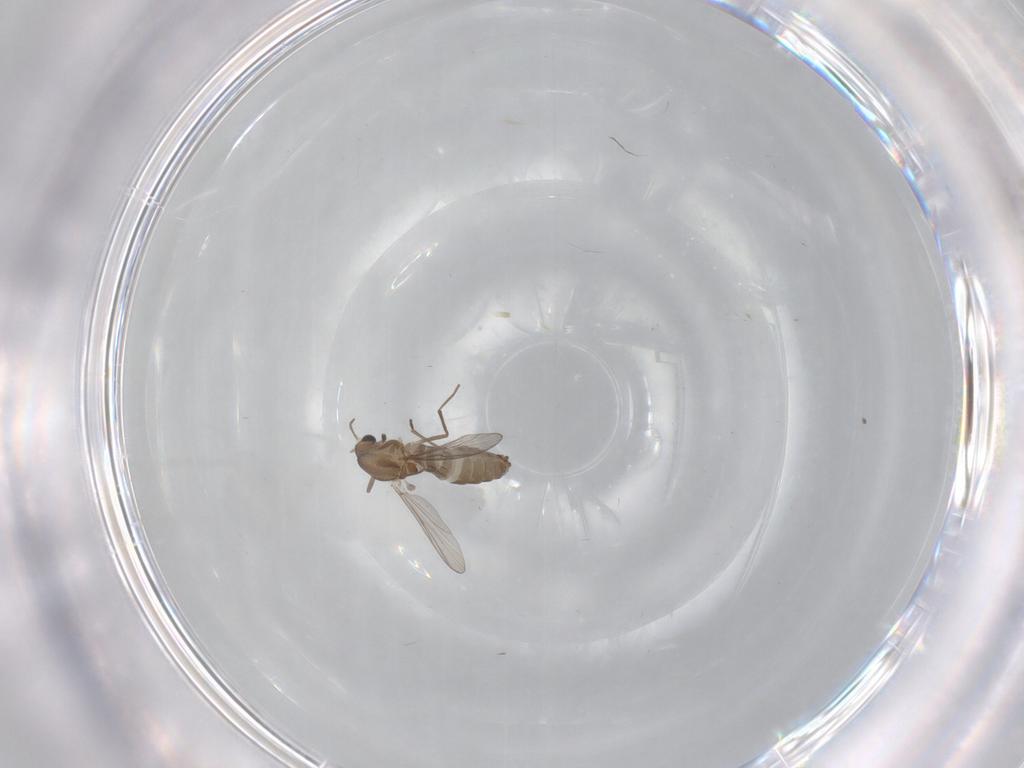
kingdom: Animalia
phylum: Arthropoda
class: Insecta
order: Diptera
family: Chironomidae
